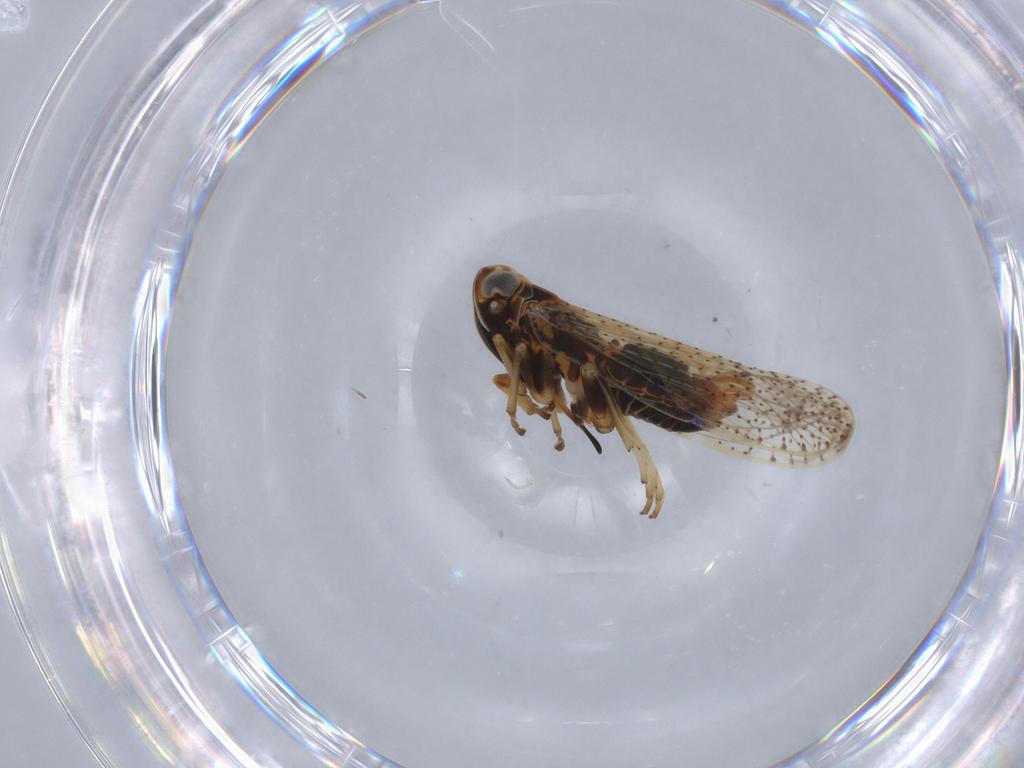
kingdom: Animalia
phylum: Arthropoda
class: Insecta
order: Hemiptera
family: Cixiidae
